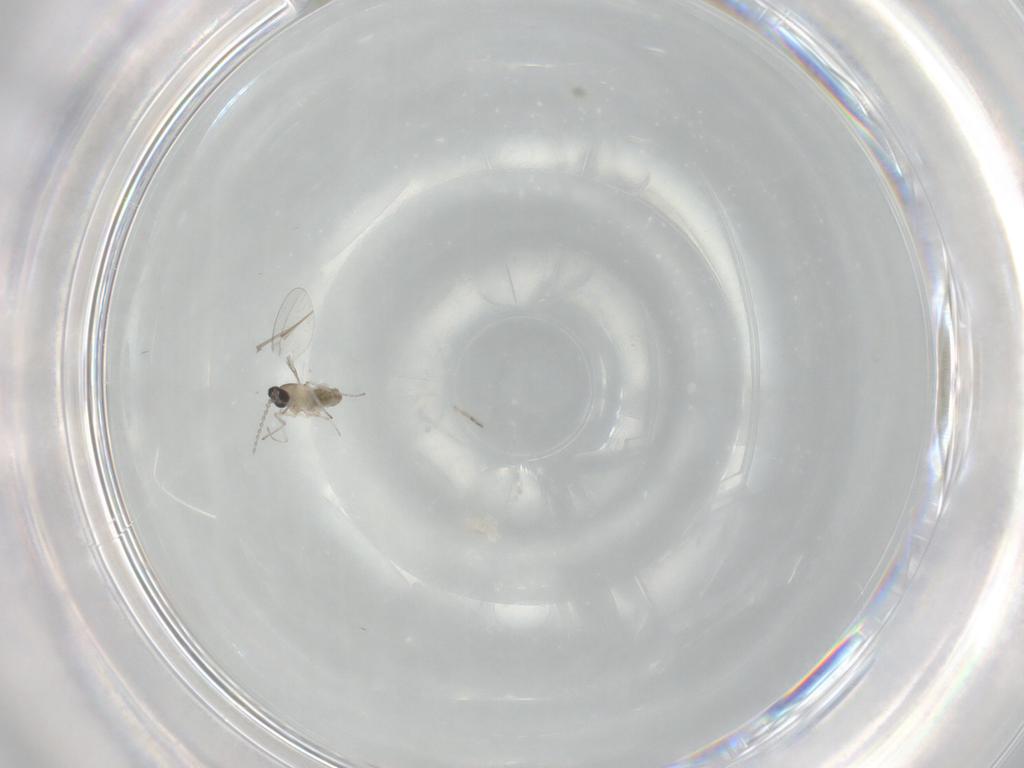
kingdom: Animalia
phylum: Arthropoda
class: Insecta
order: Diptera
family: Cecidomyiidae
